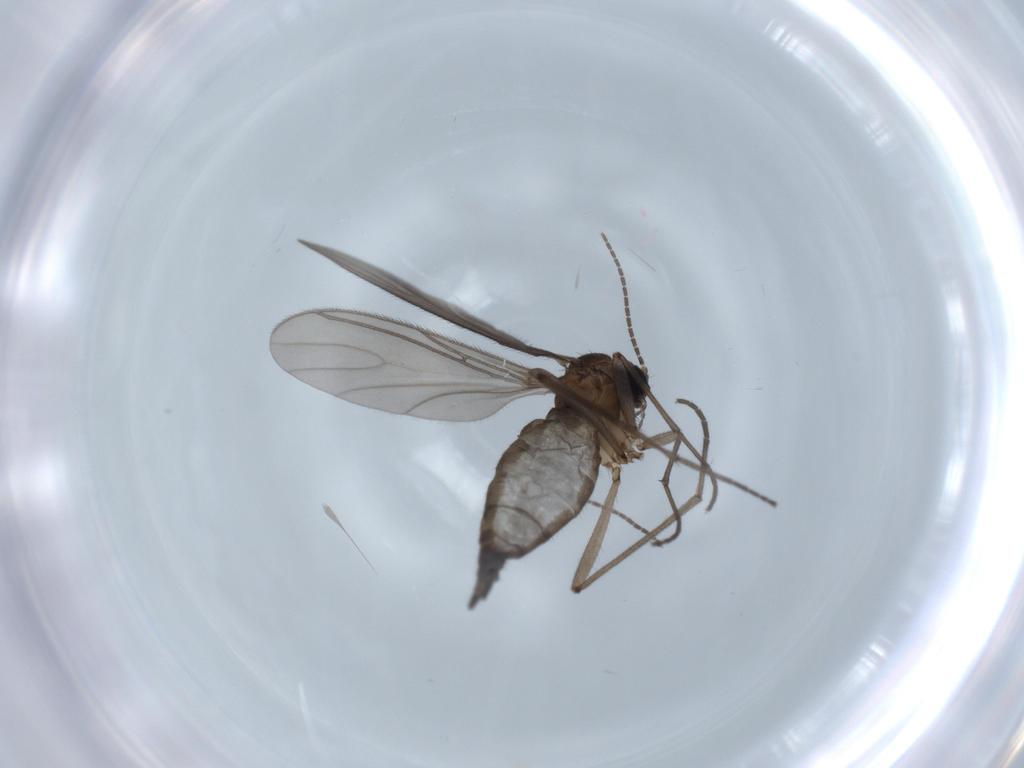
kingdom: Animalia
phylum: Arthropoda
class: Insecta
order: Diptera
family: Sciaridae
